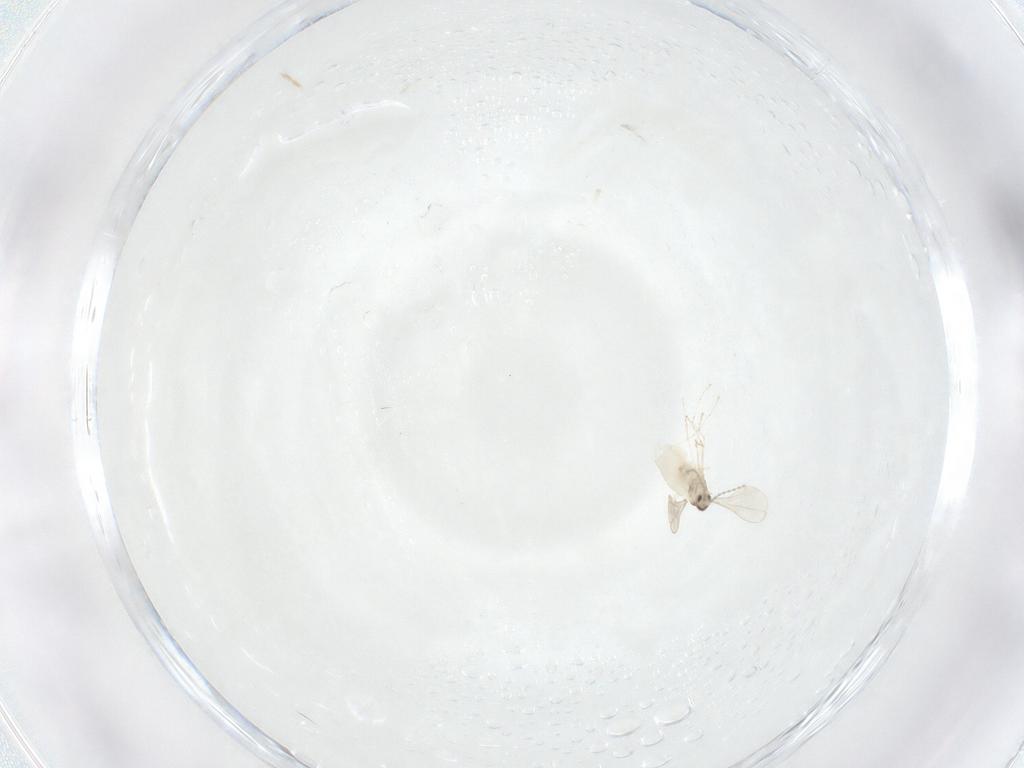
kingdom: Animalia
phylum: Arthropoda
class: Insecta
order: Diptera
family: Cecidomyiidae
